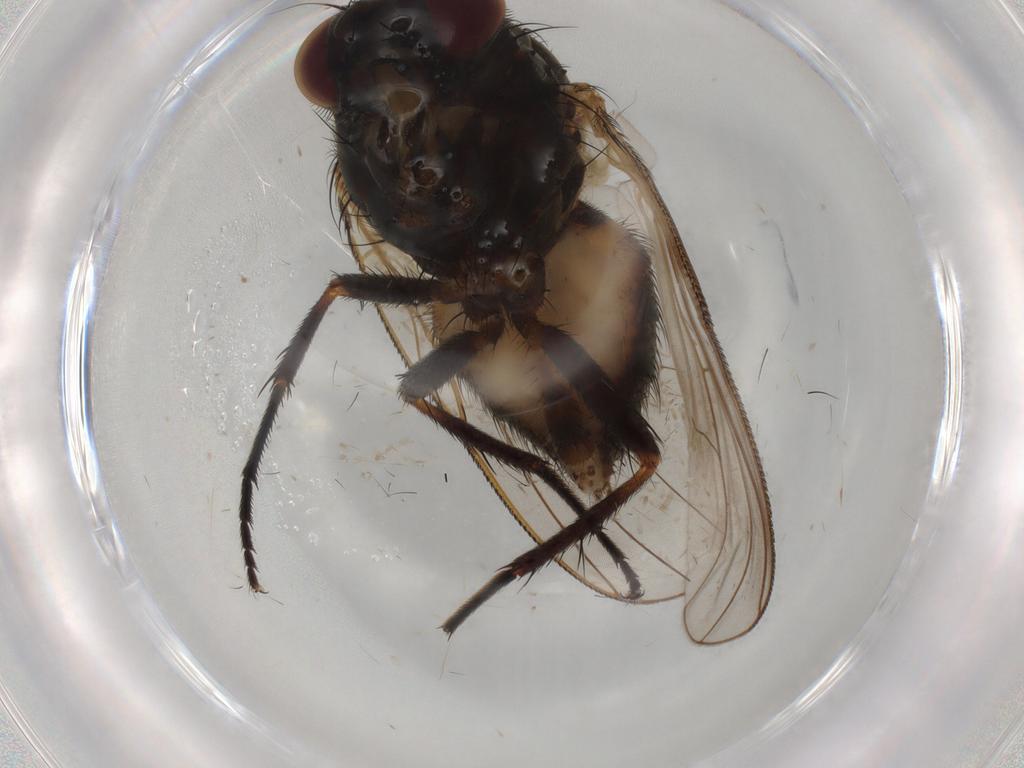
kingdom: Animalia
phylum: Arthropoda
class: Insecta
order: Diptera
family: Fannia
